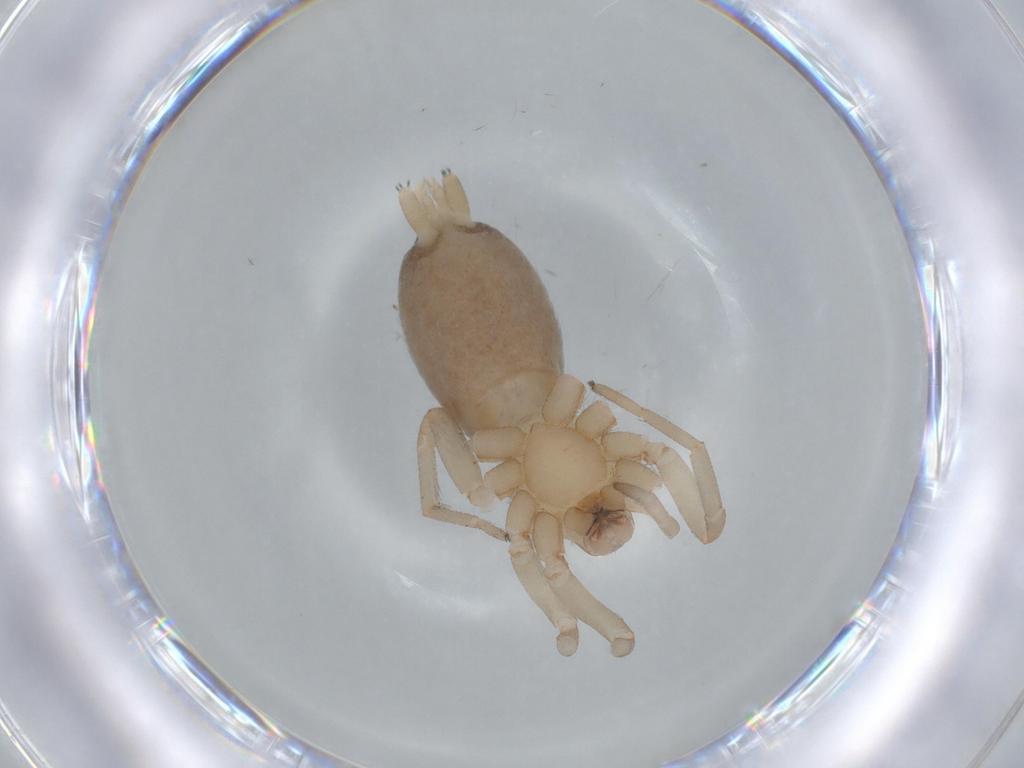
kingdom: Animalia
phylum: Arthropoda
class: Arachnida
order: Araneae
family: Gnaphosidae
